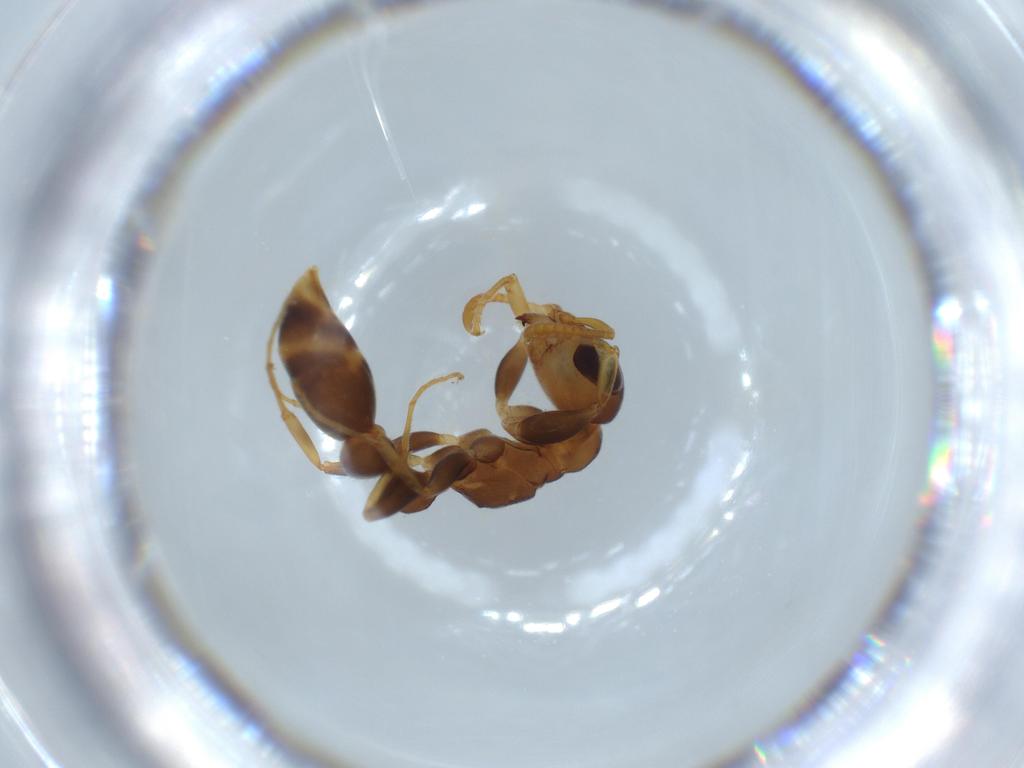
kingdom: Animalia
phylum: Arthropoda
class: Insecta
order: Hymenoptera
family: Formicidae
